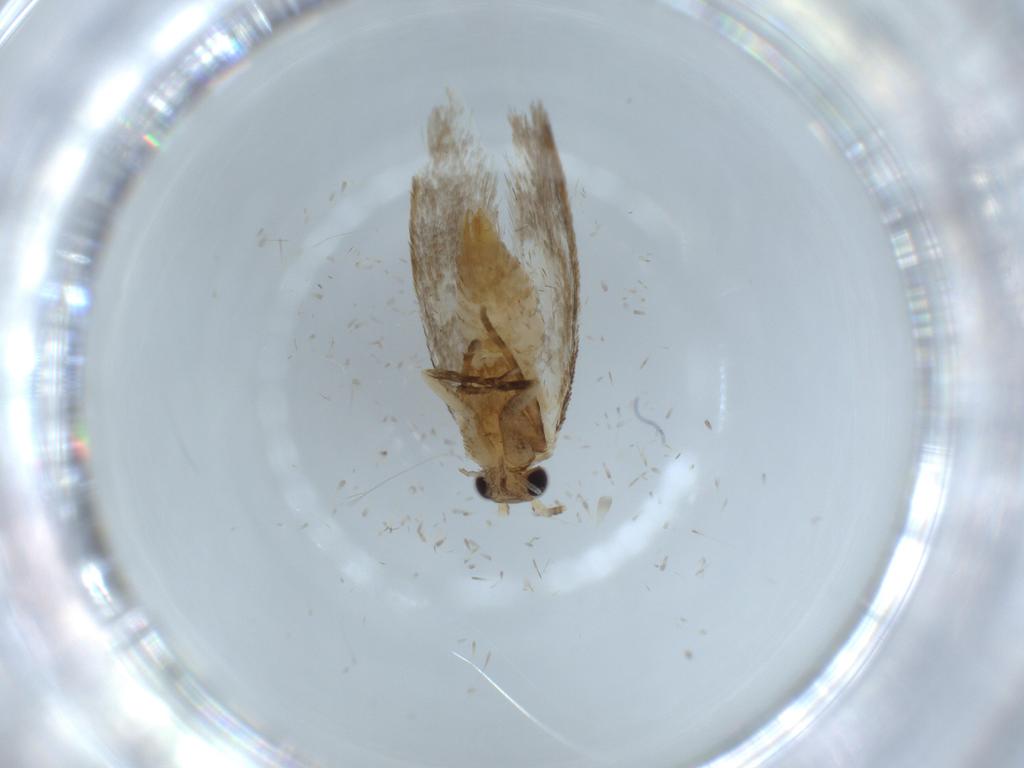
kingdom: Animalia
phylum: Arthropoda
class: Insecta
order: Lepidoptera
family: Tineidae
